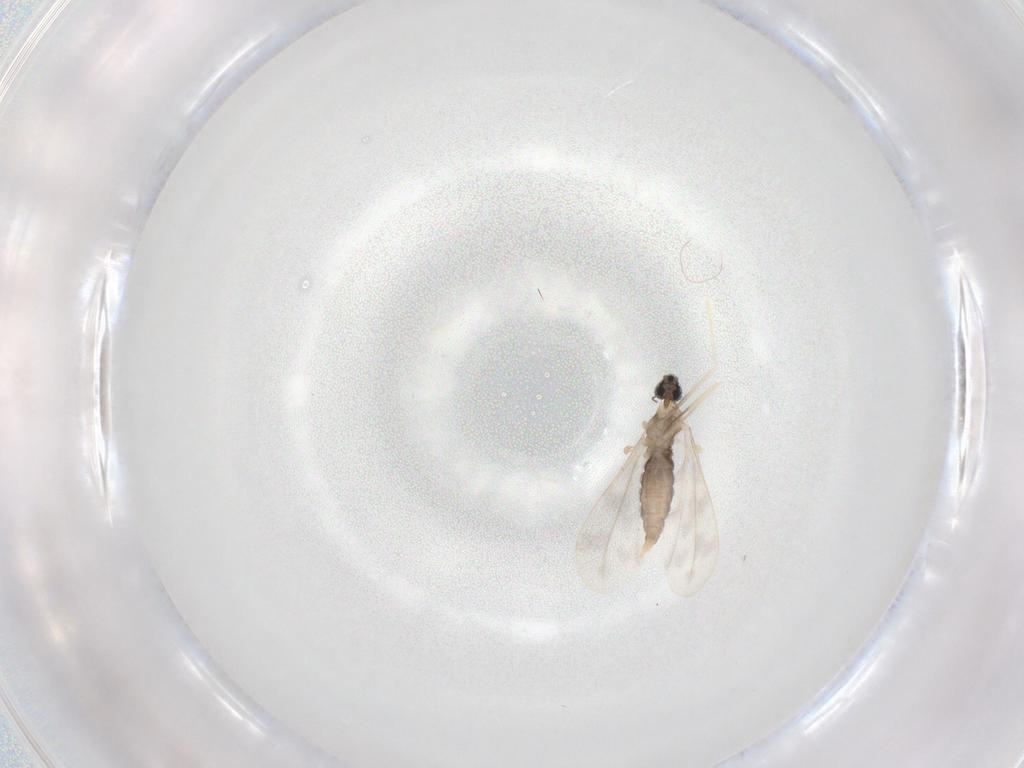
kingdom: Animalia
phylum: Arthropoda
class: Insecta
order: Diptera
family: Cecidomyiidae
